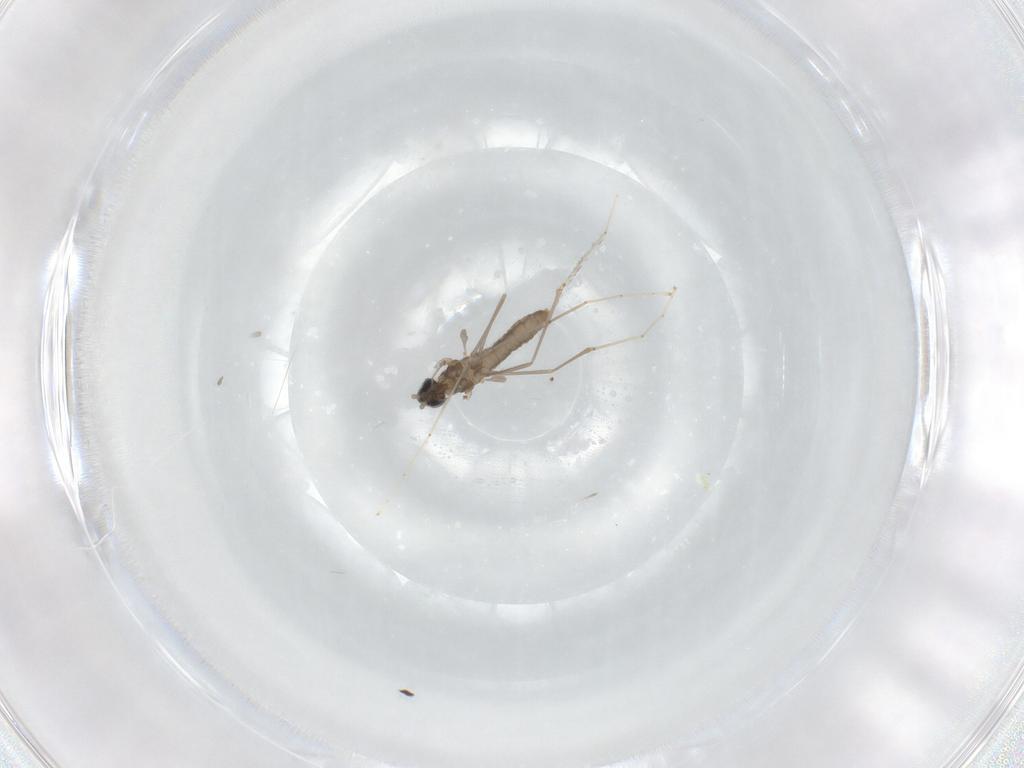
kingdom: Animalia
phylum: Arthropoda
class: Insecta
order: Diptera
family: Cecidomyiidae
